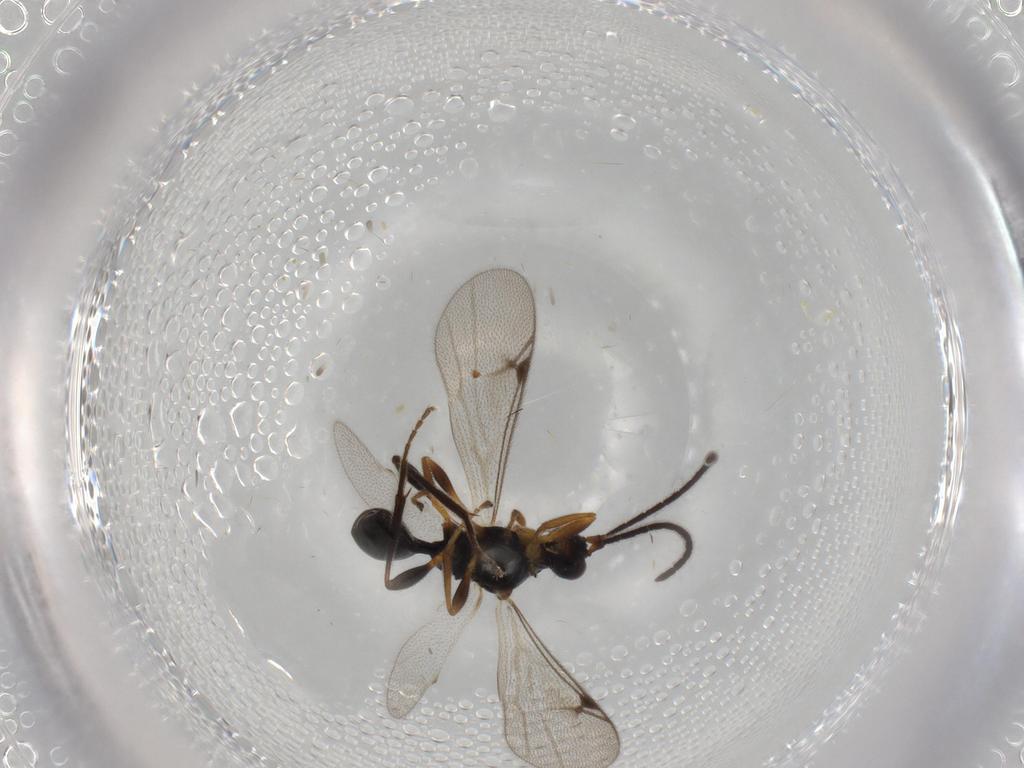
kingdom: Animalia
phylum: Arthropoda
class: Insecta
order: Hymenoptera
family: Proctotrupidae
